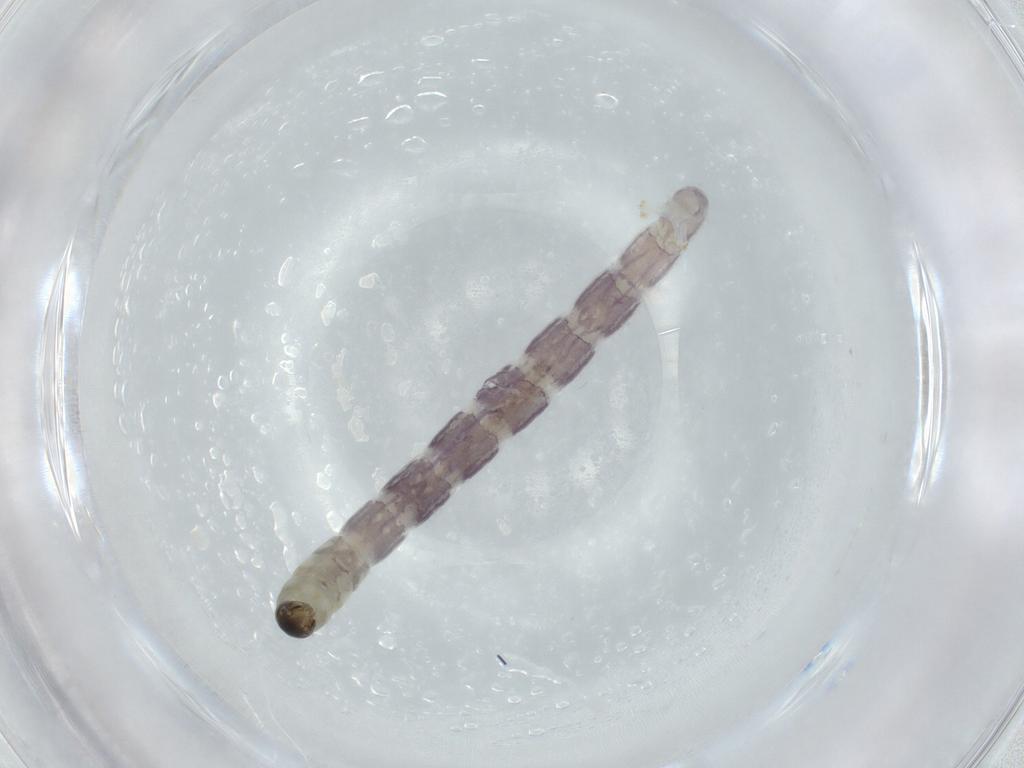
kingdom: Animalia
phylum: Arthropoda
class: Insecta
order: Diptera
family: Chironomidae
